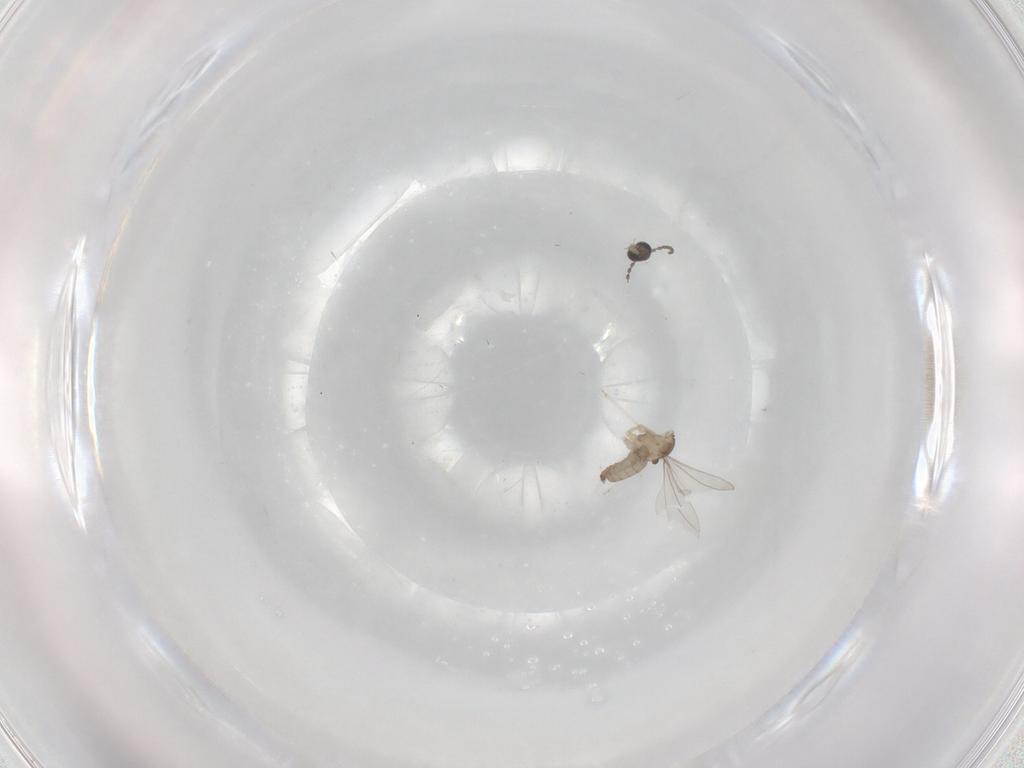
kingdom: Animalia
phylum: Arthropoda
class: Insecta
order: Diptera
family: Cecidomyiidae
